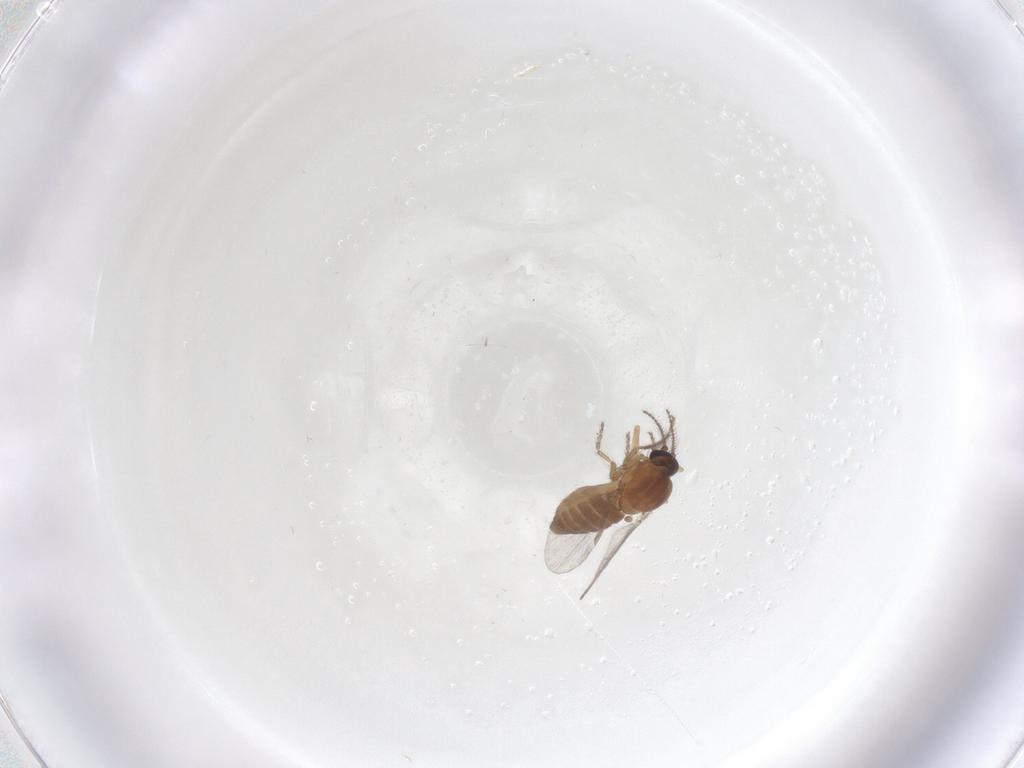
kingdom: Animalia
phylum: Arthropoda
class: Insecta
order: Diptera
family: Ceratopogonidae
